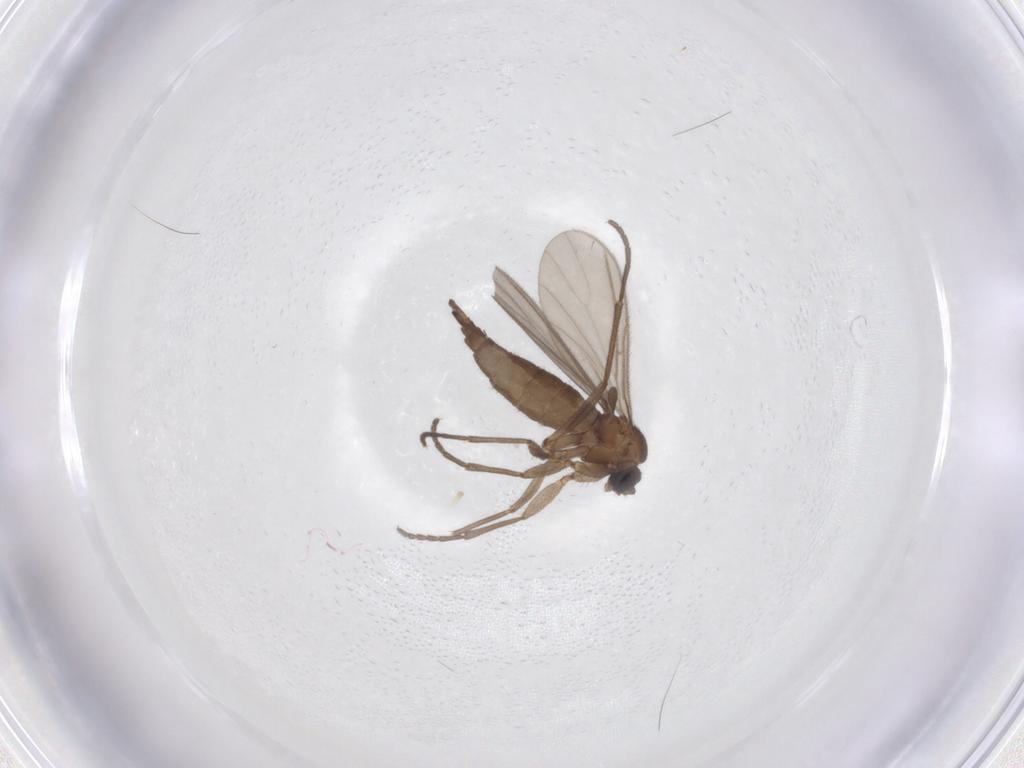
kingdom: Animalia
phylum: Arthropoda
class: Insecta
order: Diptera
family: Sciaridae
